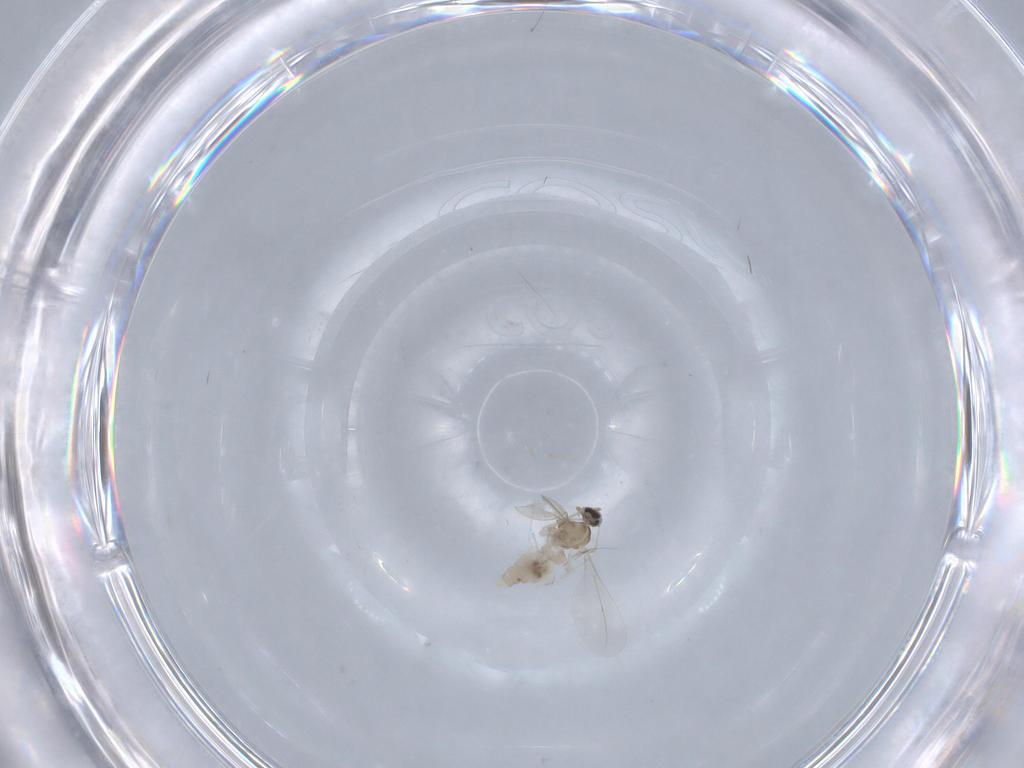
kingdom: Animalia
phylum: Arthropoda
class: Insecta
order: Diptera
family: Cecidomyiidae
